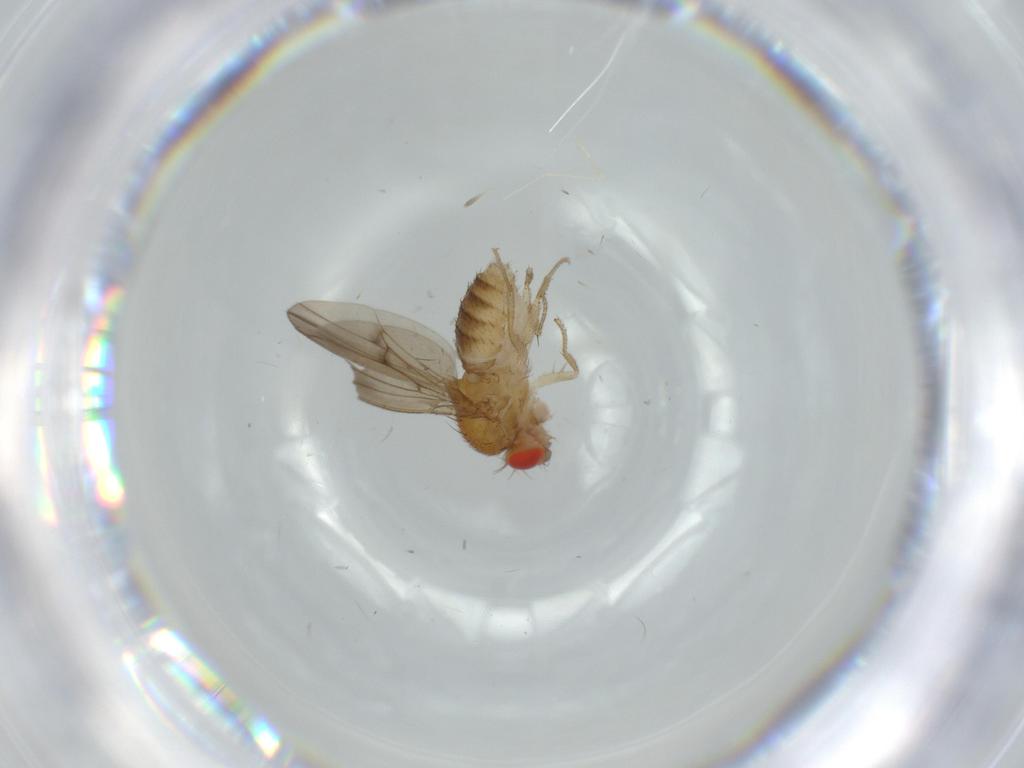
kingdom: Animalia
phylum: Arthropoda
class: Insecta
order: Diptera
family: Drosophilidae
